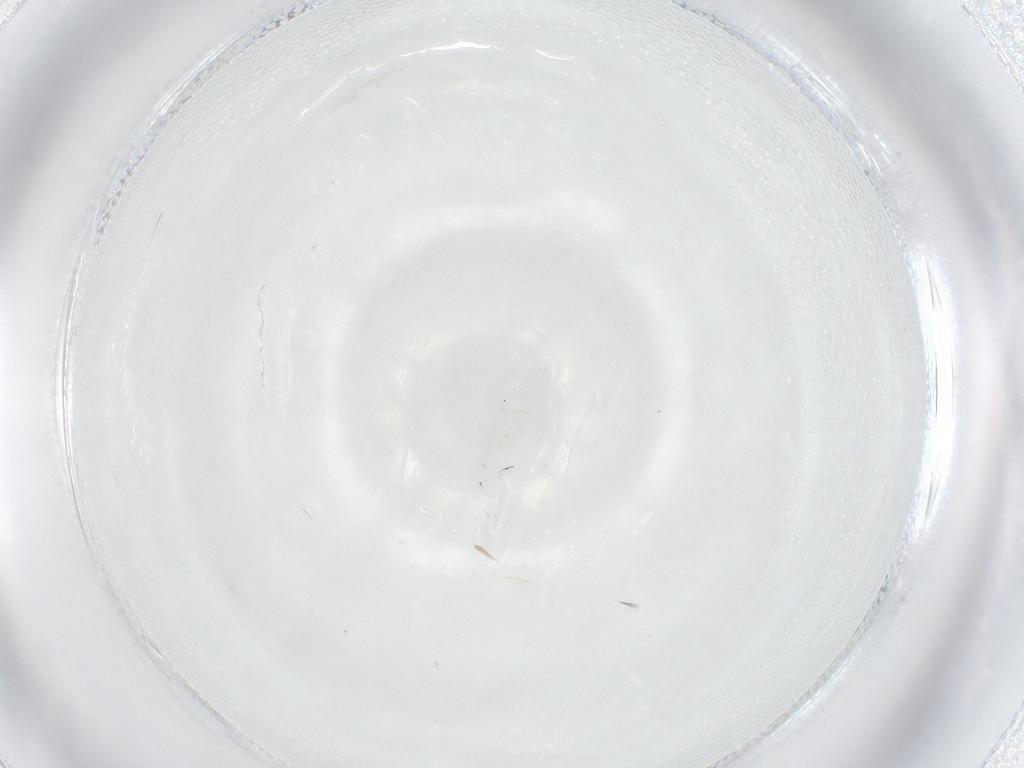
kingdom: Animalia
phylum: Arthropoda
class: Insecta
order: Diptera
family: Ceratopogonidae
